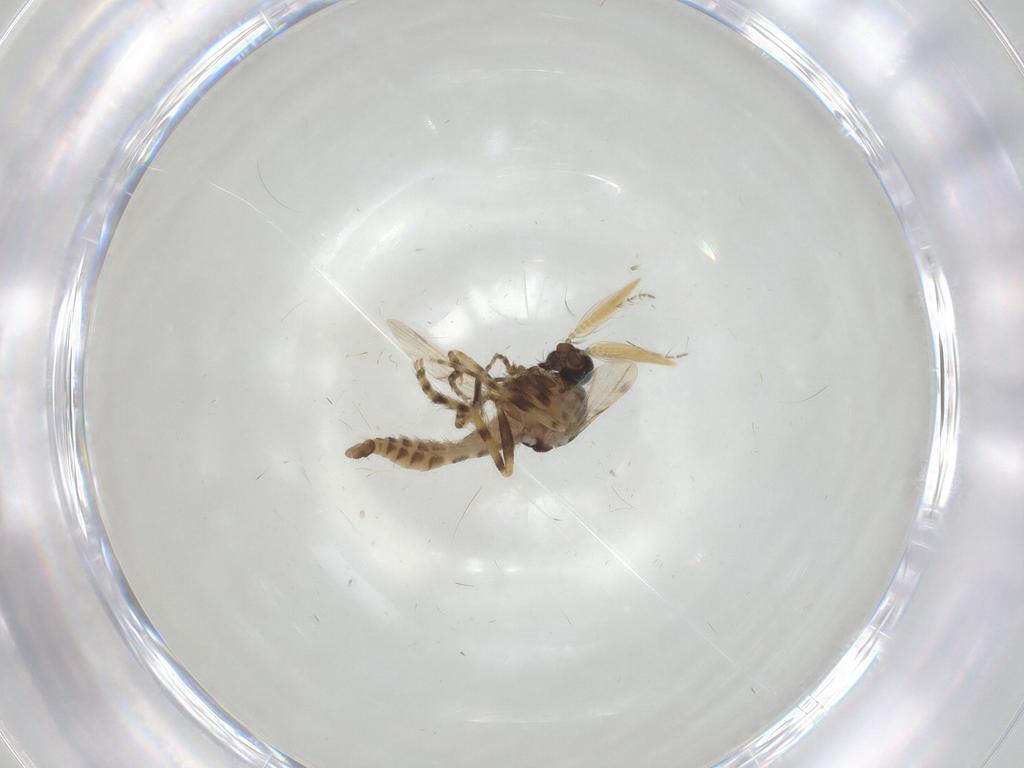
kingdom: Animalia
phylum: Arthropoda
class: Insecta
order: Diptera
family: Ceratopogonidae
